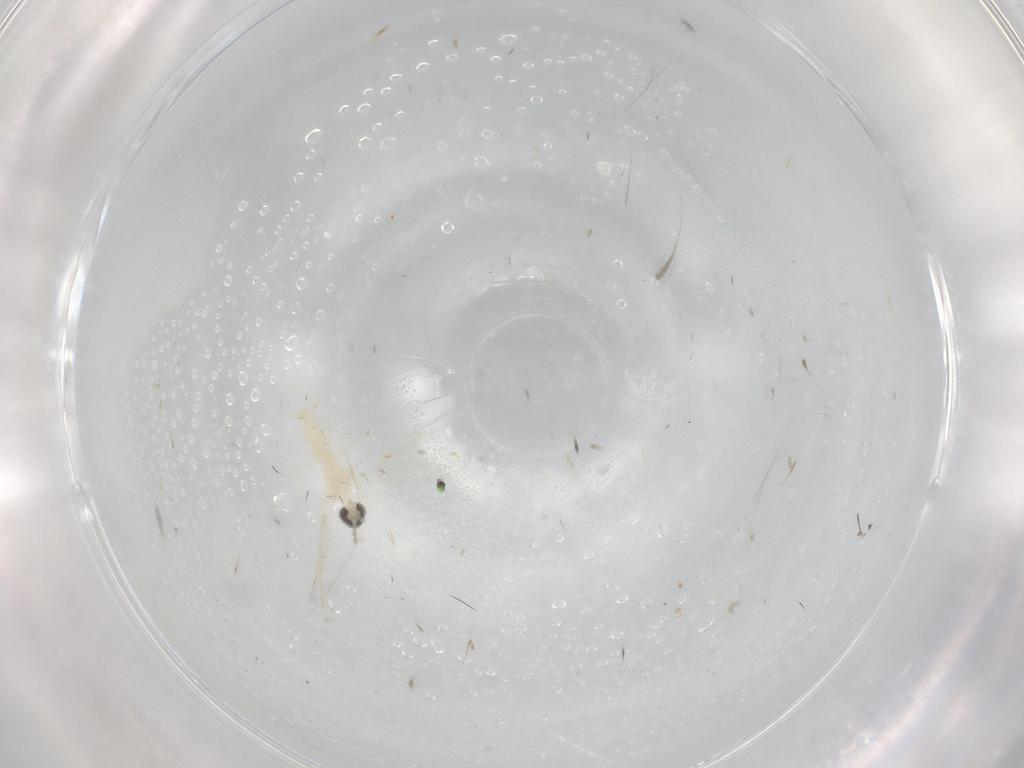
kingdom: Animalia
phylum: Arthropoda
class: Insecta
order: Diptera
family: Cecidomyiidae
